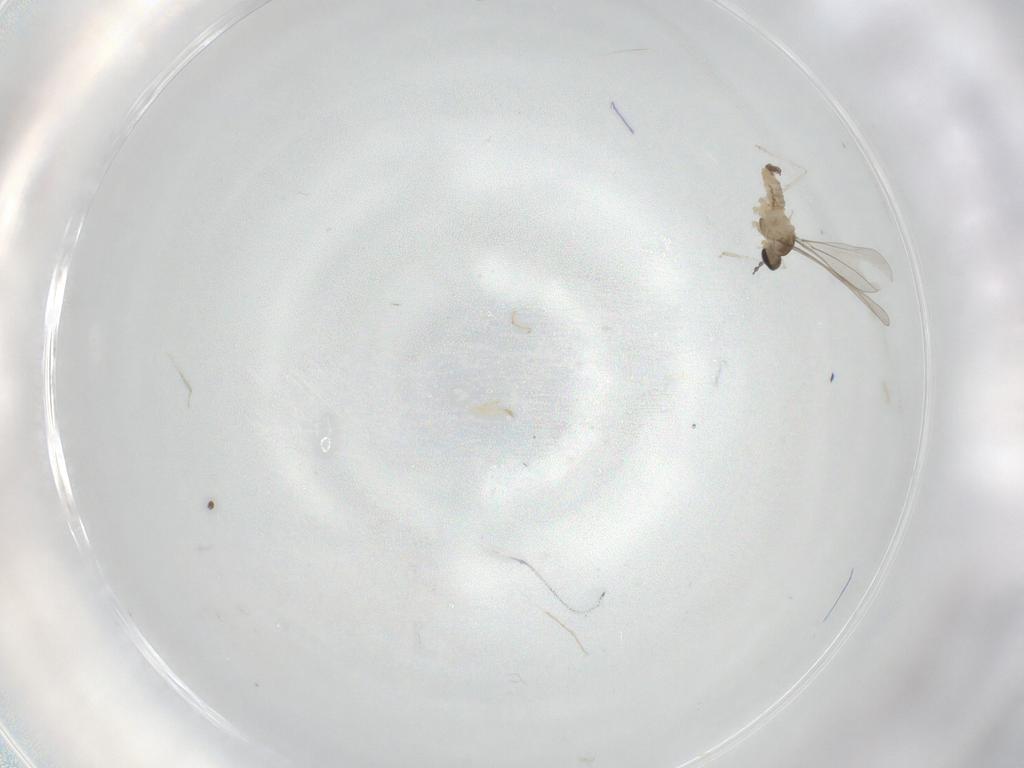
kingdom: Animalia
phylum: Arthropoda
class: Insecta
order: Diptera
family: Cecidomyiidae
